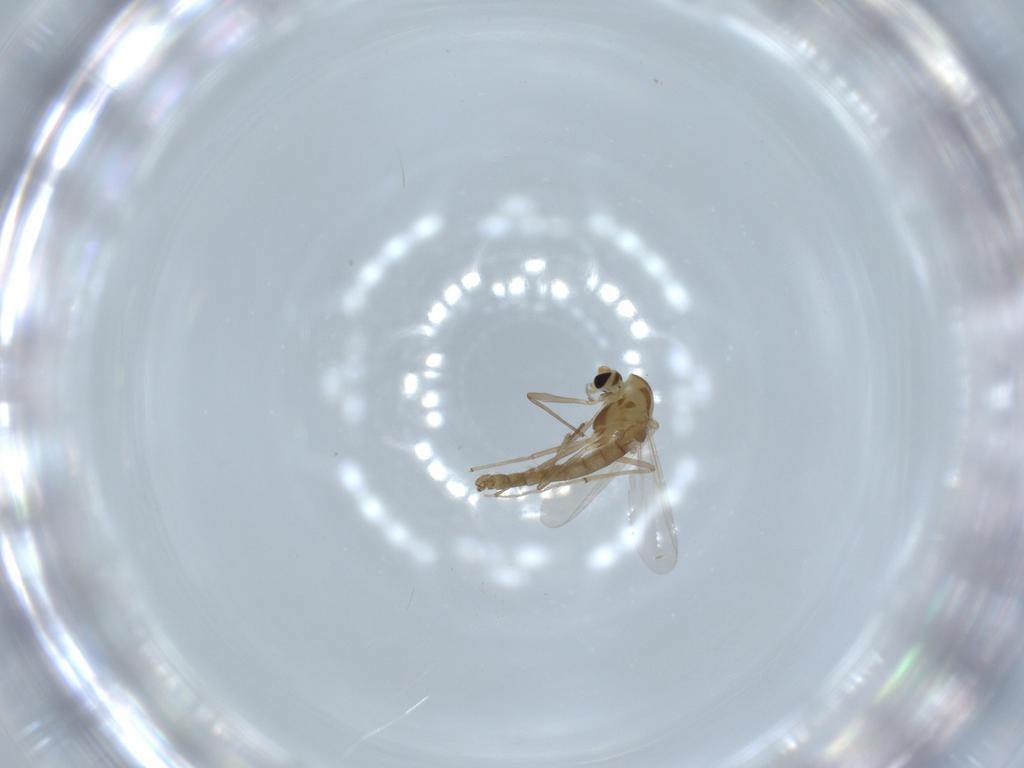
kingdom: Animalia
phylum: Arthropoda
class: Insecta
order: Diptera
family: Chironomidae
